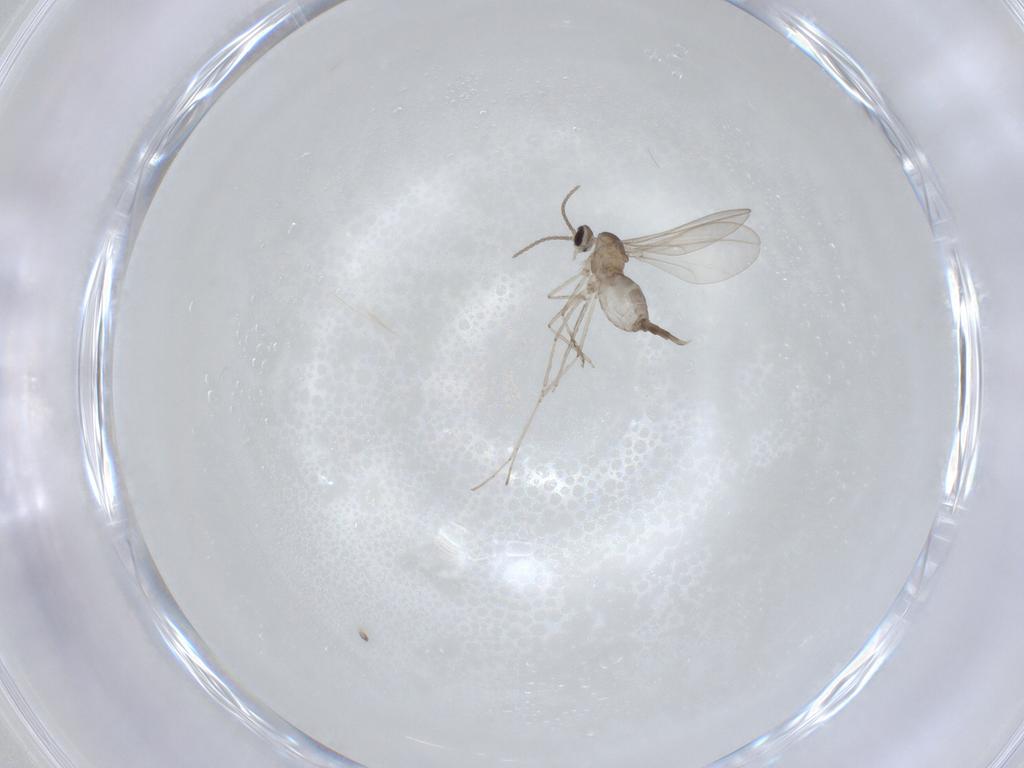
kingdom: Animalia
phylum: Arthropoda
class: Insecta
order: Diptera
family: Cecidomyiidae
